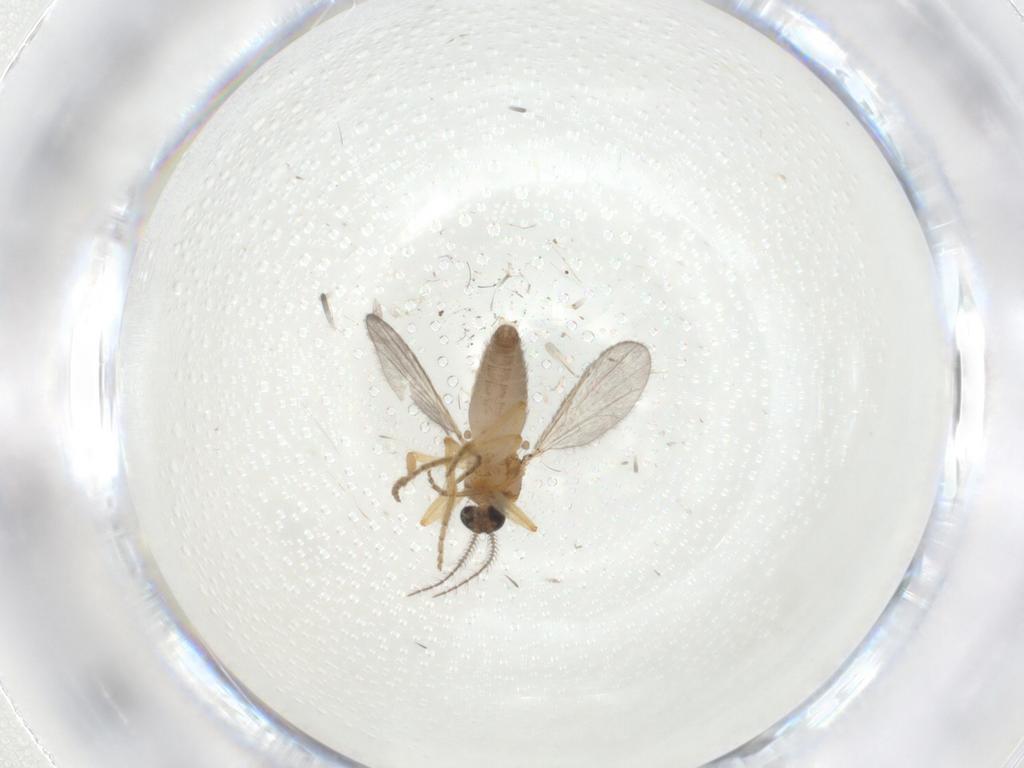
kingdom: Animalia
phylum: Arthropoda
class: Insecta
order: Diptera
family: Ceratopogonidae
